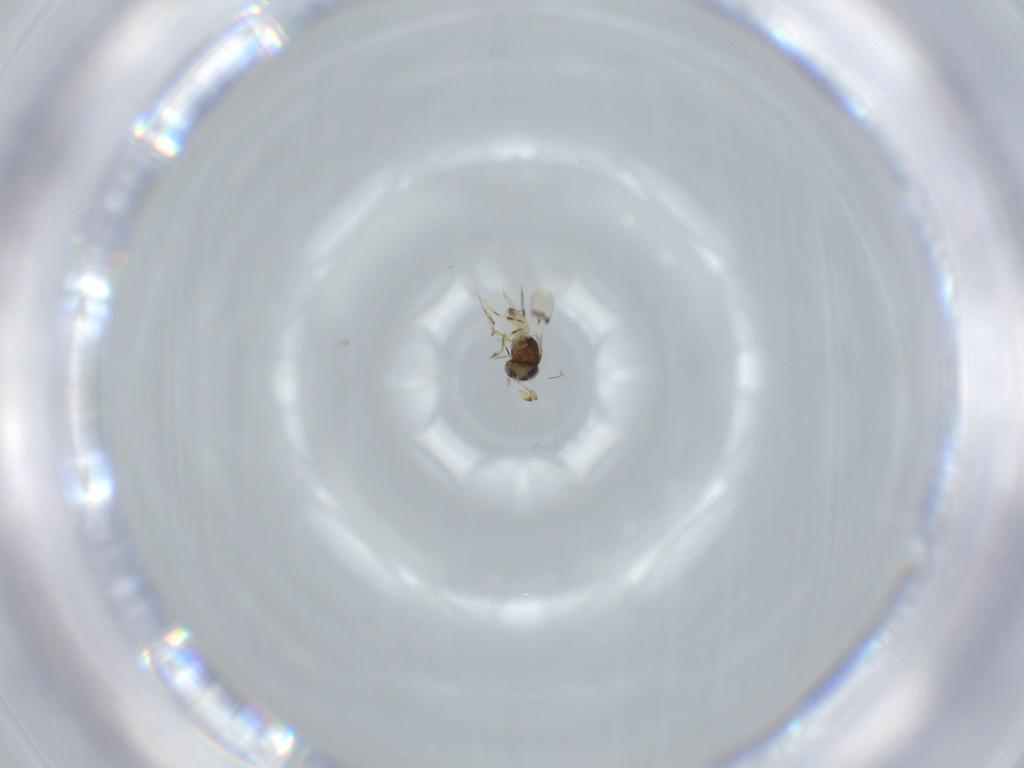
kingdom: Animalia
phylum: Arthropoda
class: Insecta
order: Hymenoptera
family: Scelionidae
